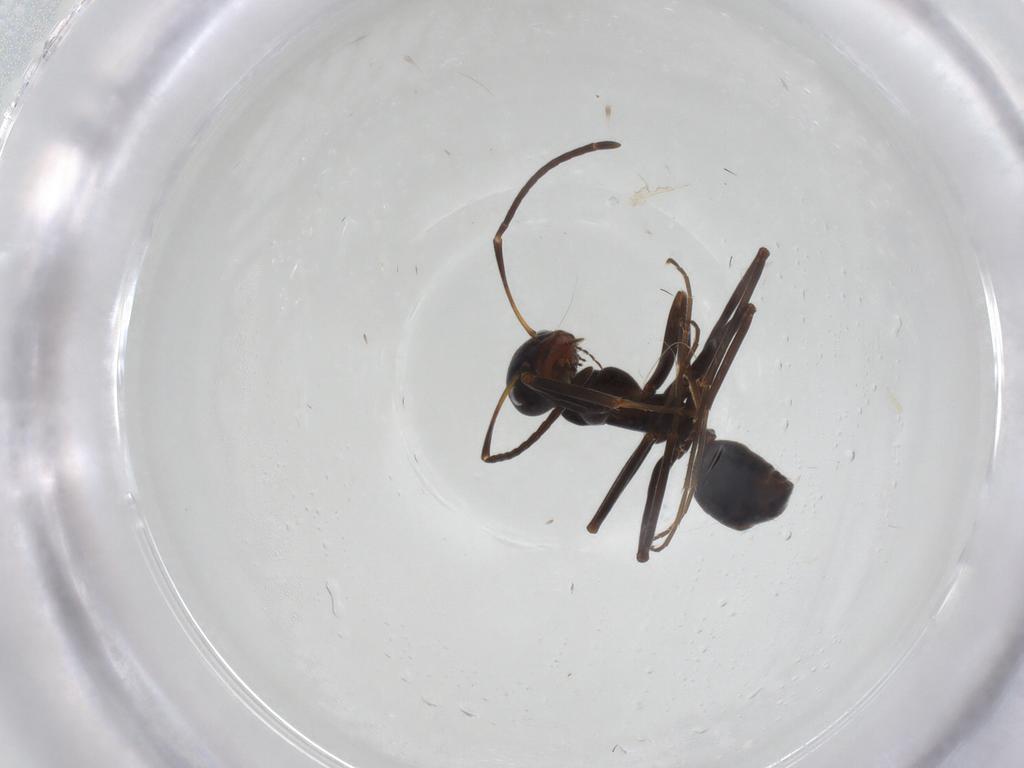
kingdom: Animalia
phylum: Arthropoda
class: Insecta
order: Hymenoptera
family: Formicidae
